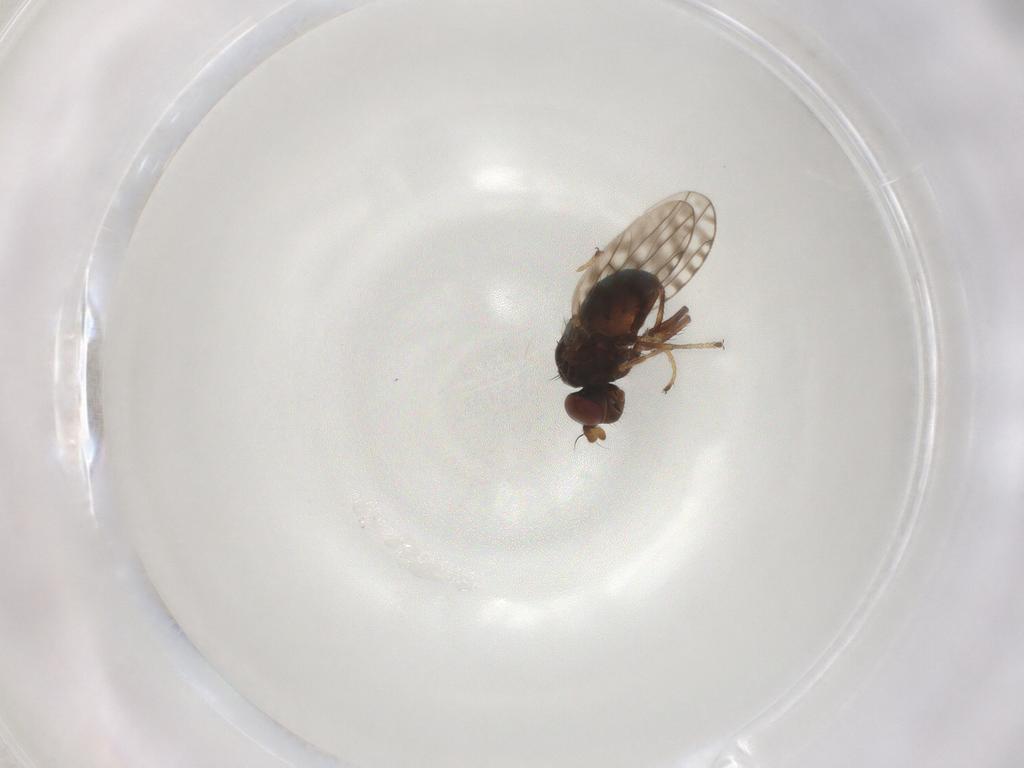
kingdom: Animalia
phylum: Arthropoda
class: Insecta
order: Diptera
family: Ephydridae
